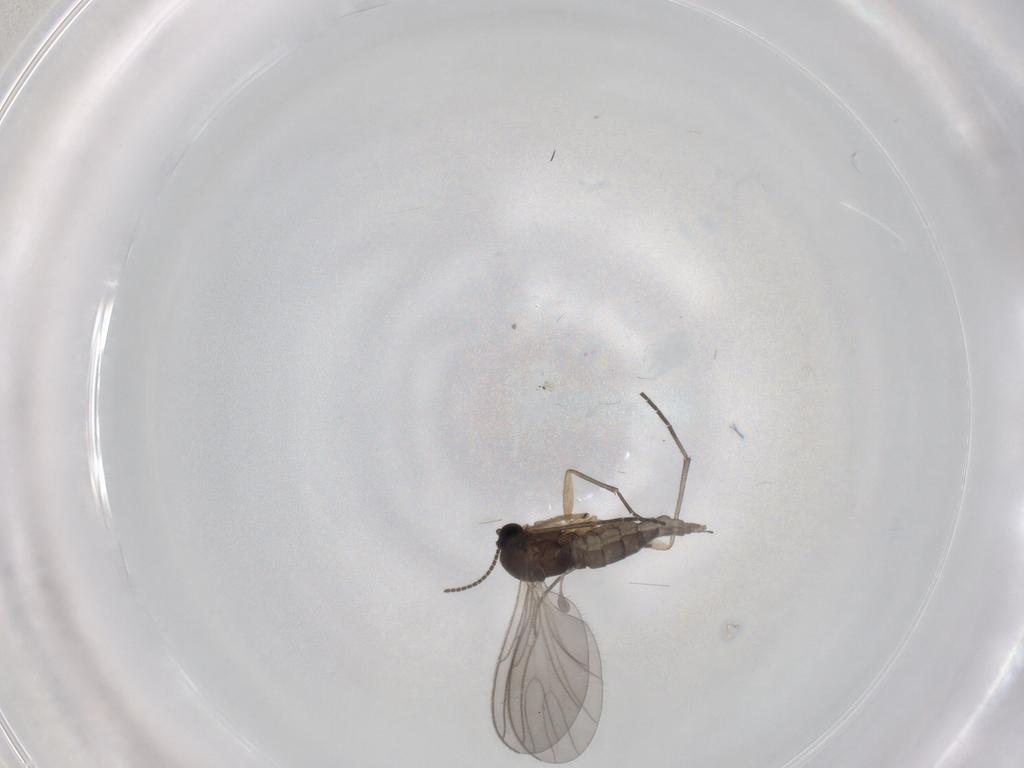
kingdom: Animalia
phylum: Arthropoda
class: Insecta
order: Diptera
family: Sciaridae
